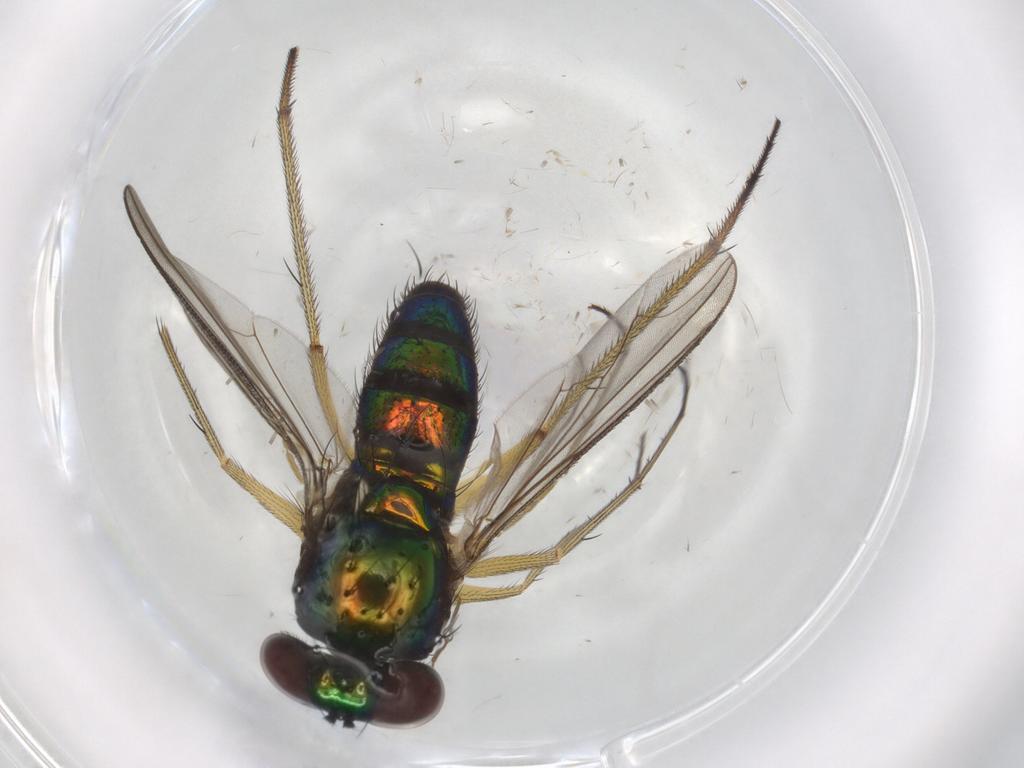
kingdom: Animalia
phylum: Arthropoda
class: Insecta
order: Diptera
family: Dolichopodidae
